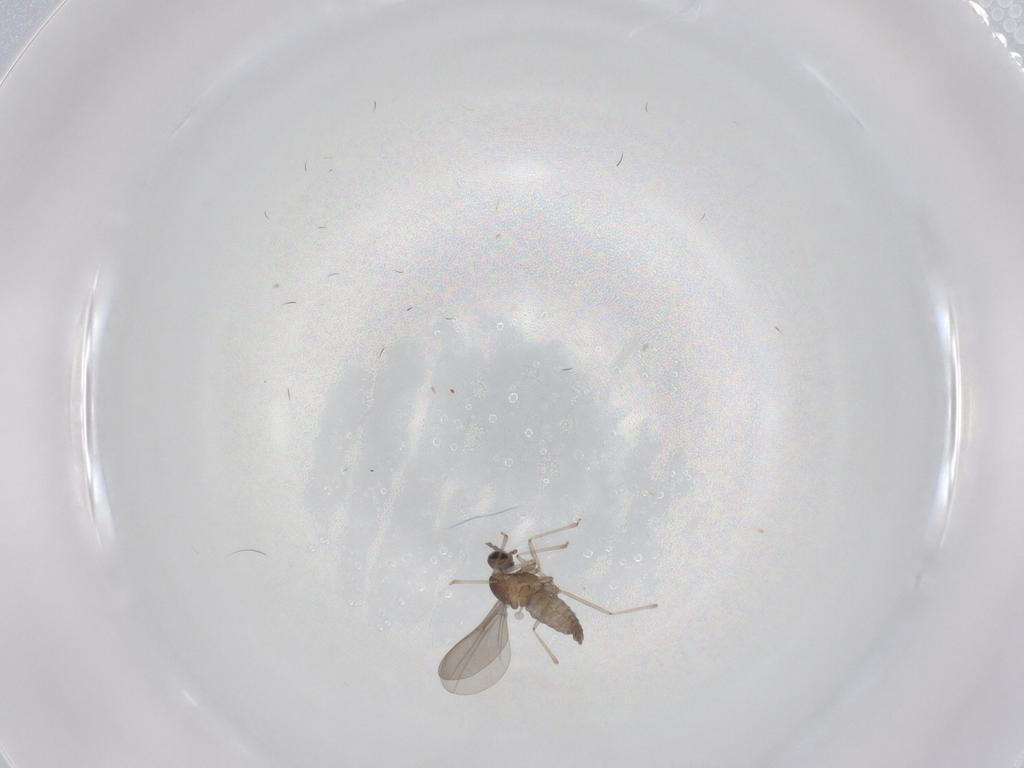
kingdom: Animalia
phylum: Arthropoda
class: Insecta
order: Diptera
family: Cecidomyiidae
